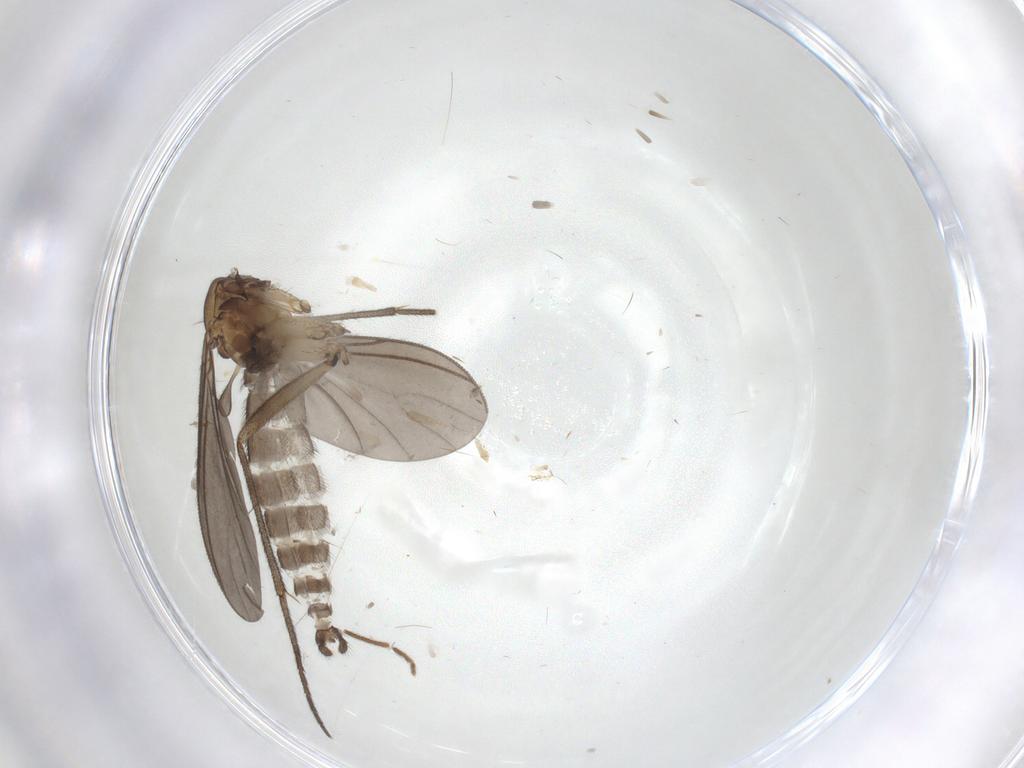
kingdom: Animalia
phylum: Arthropoda
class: Insecta
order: Diptera
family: Sciaridae
